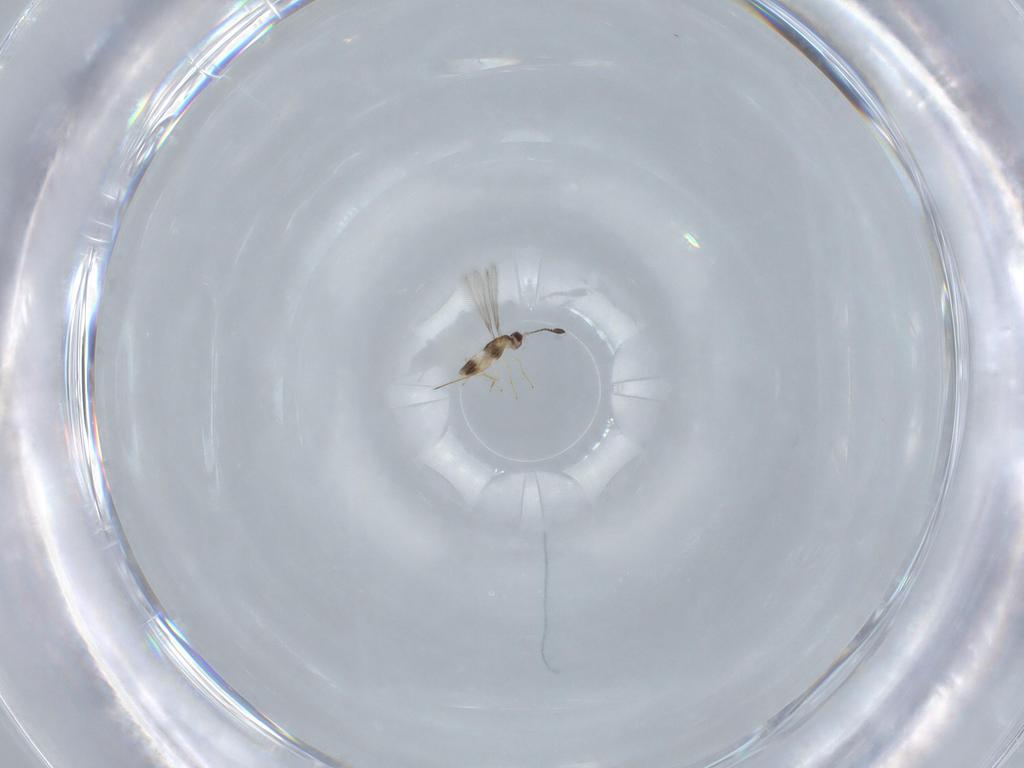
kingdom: Animalia
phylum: Arthropoda
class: Insecta
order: Hymenoptera
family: Mymaridae
